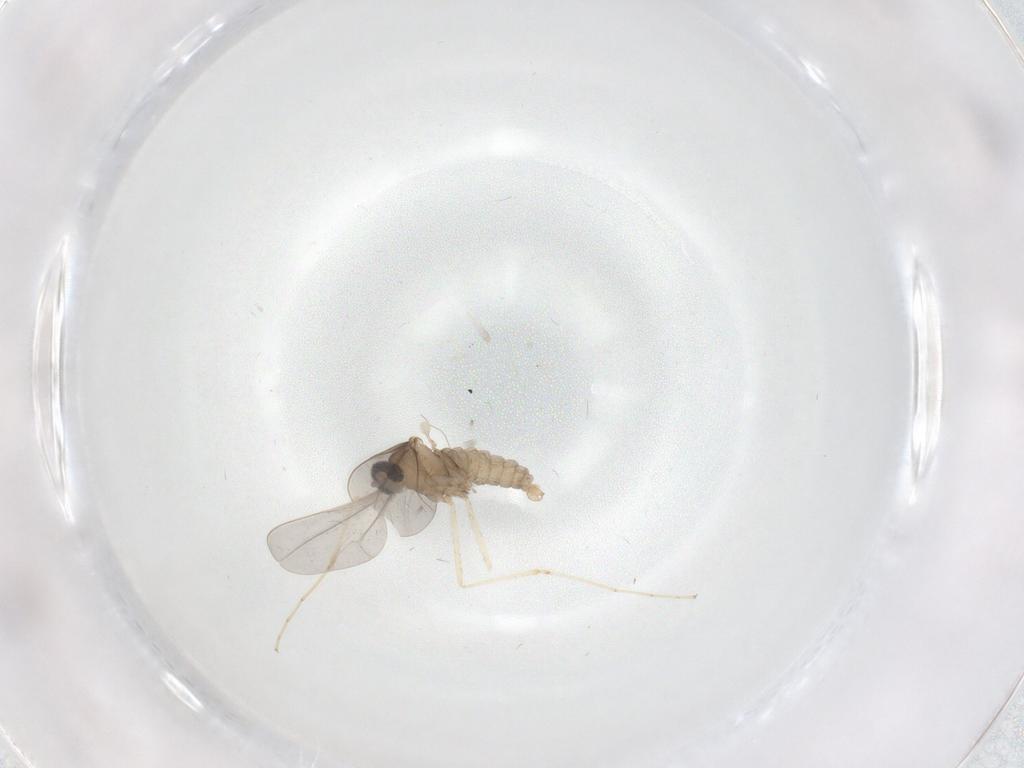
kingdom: Animalia
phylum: Arthropoda
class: Insecta
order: Diptera
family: Cecidomyiidae
